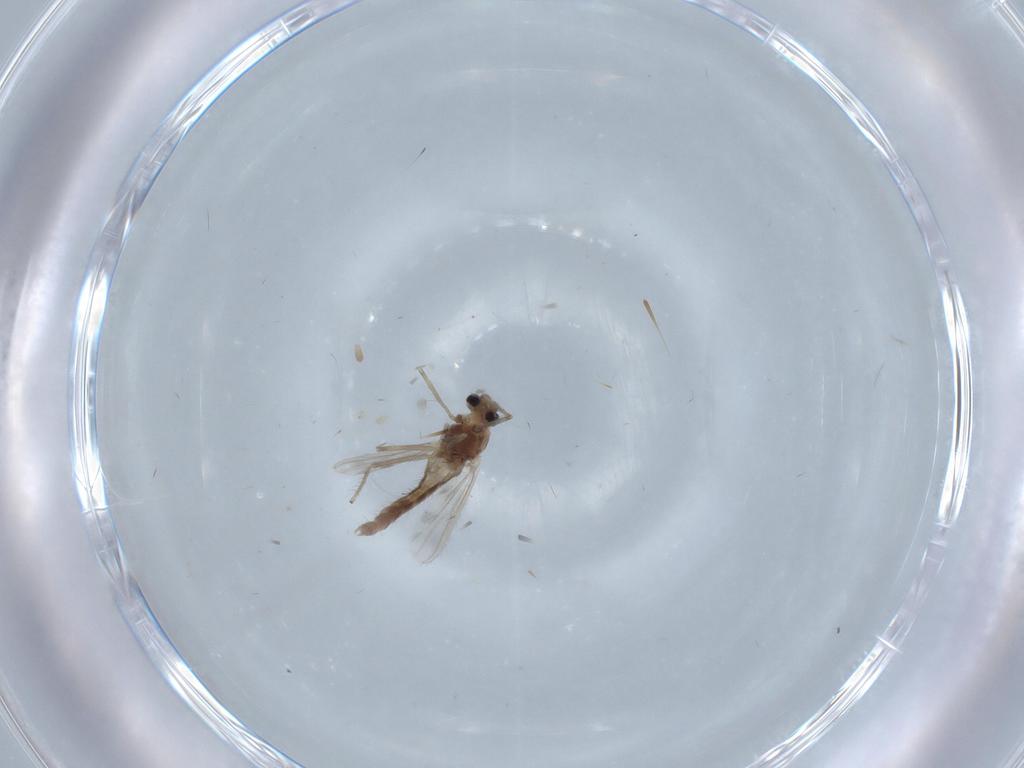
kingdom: Animalia
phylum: Arthropoda
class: Insecta
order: Diptera
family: Chironomidae
